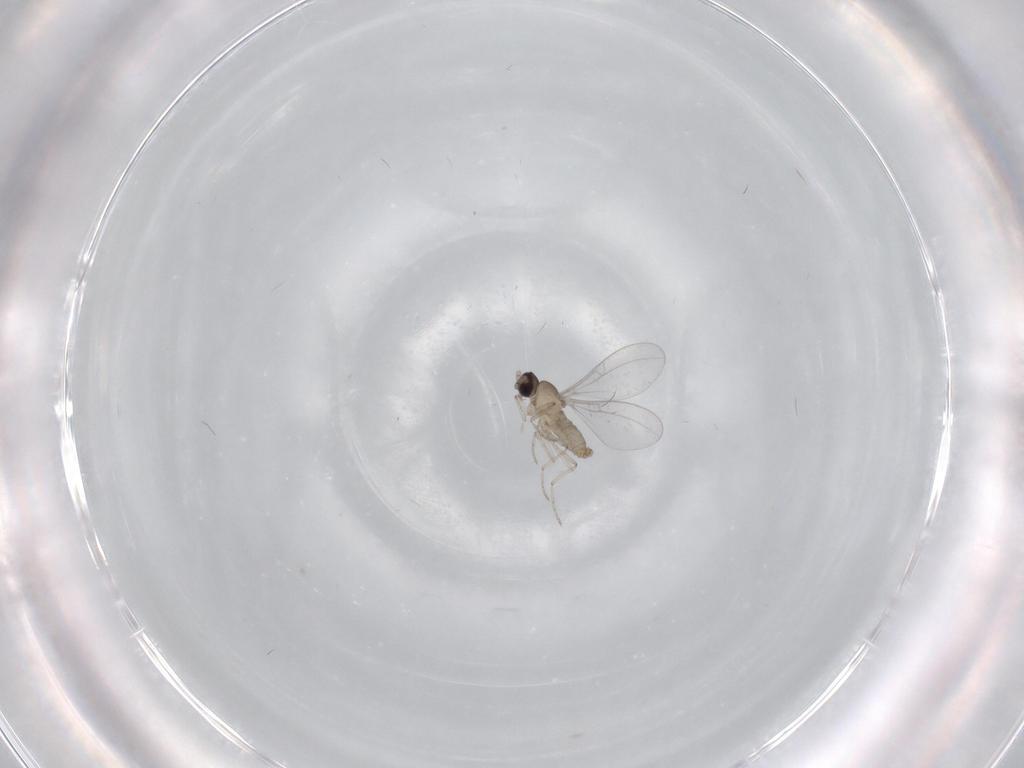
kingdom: Animalia
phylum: Arthropoda
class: Insecta
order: Diptera
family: Cecidomyiidae
